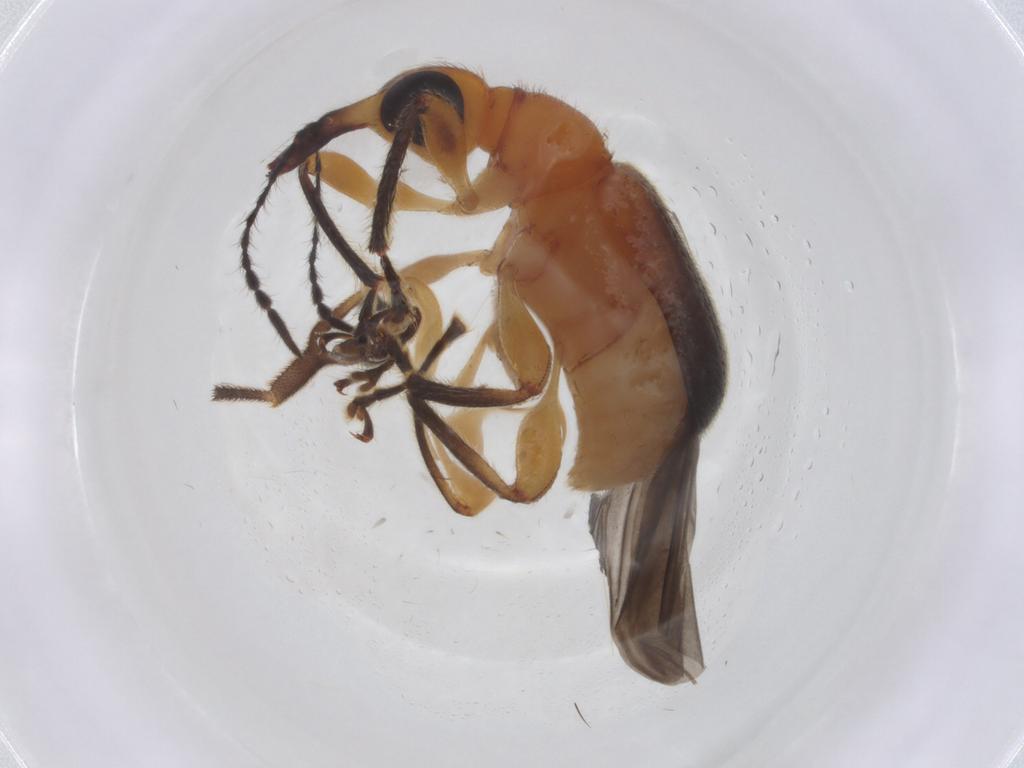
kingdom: Animalia
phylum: Arthropoda
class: Insecta
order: Coleoptera
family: Lampyridae
